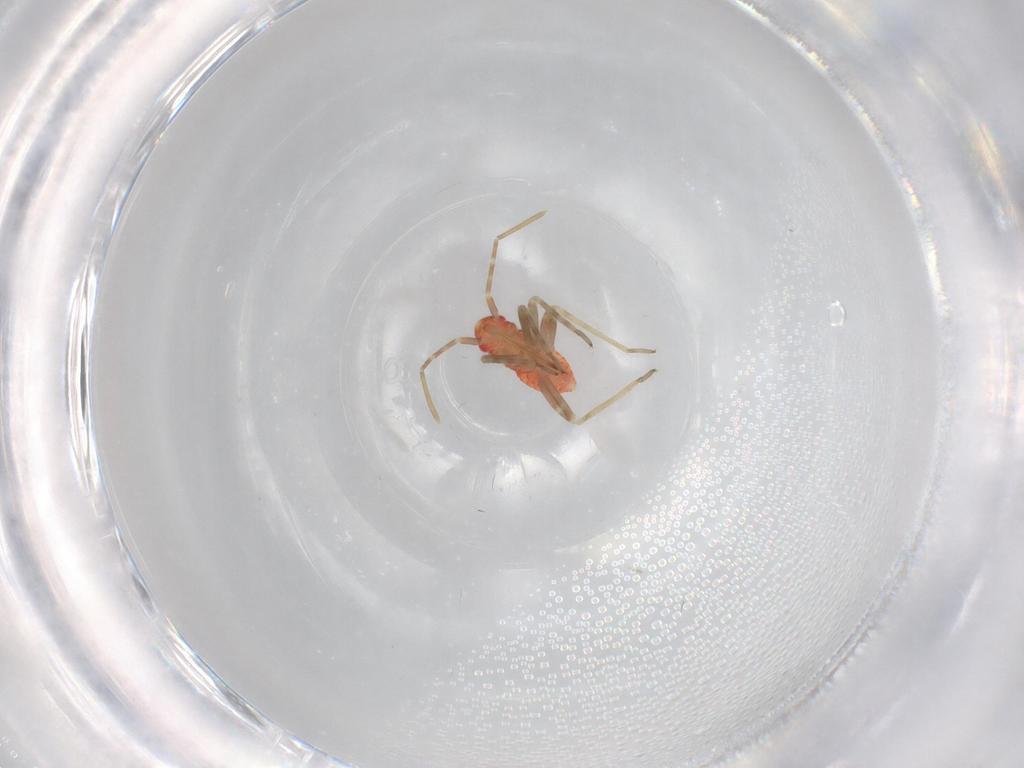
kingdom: Animalia
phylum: Arthropoda
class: Insecta
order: Hemiptera
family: Miridae
